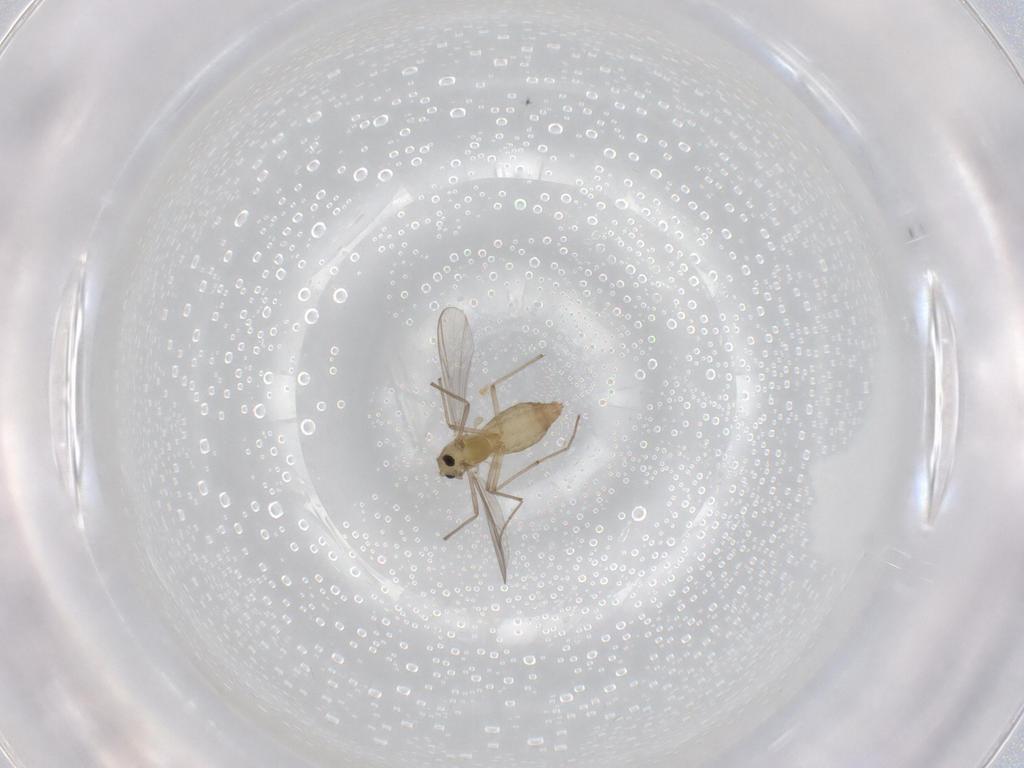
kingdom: Animalia
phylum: Arthropoda
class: Insecta
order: Diptera
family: Chironomidae
